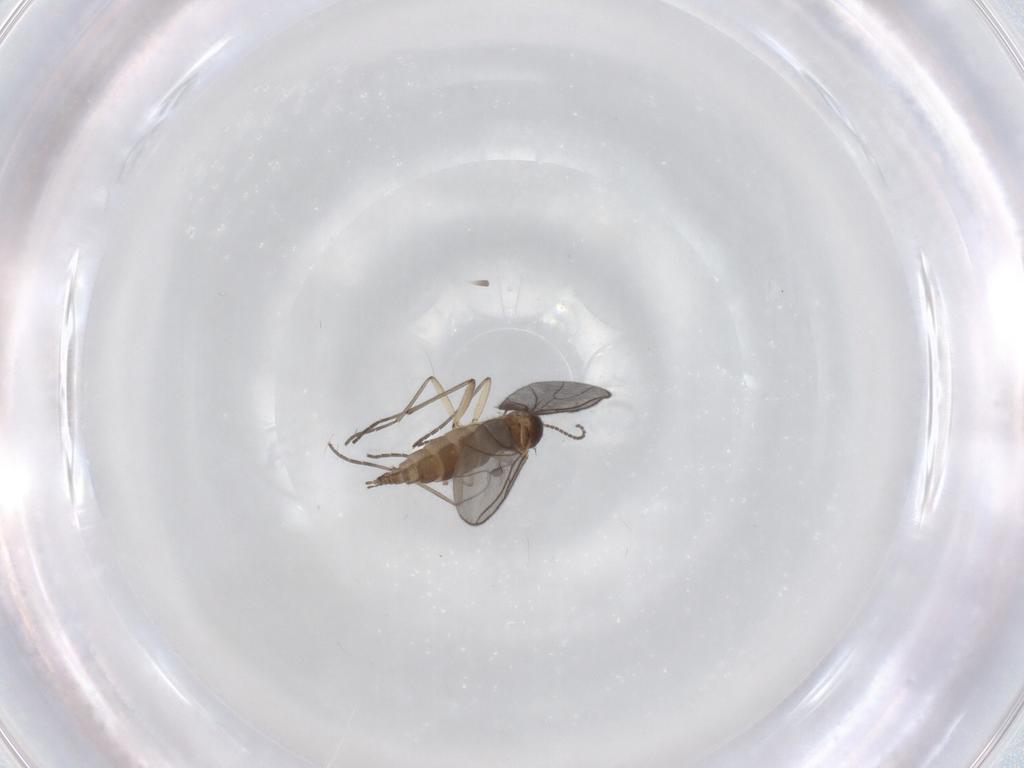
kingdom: Animalia
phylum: Arthropoda
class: Insecta
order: Diptera
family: Sciaridae
